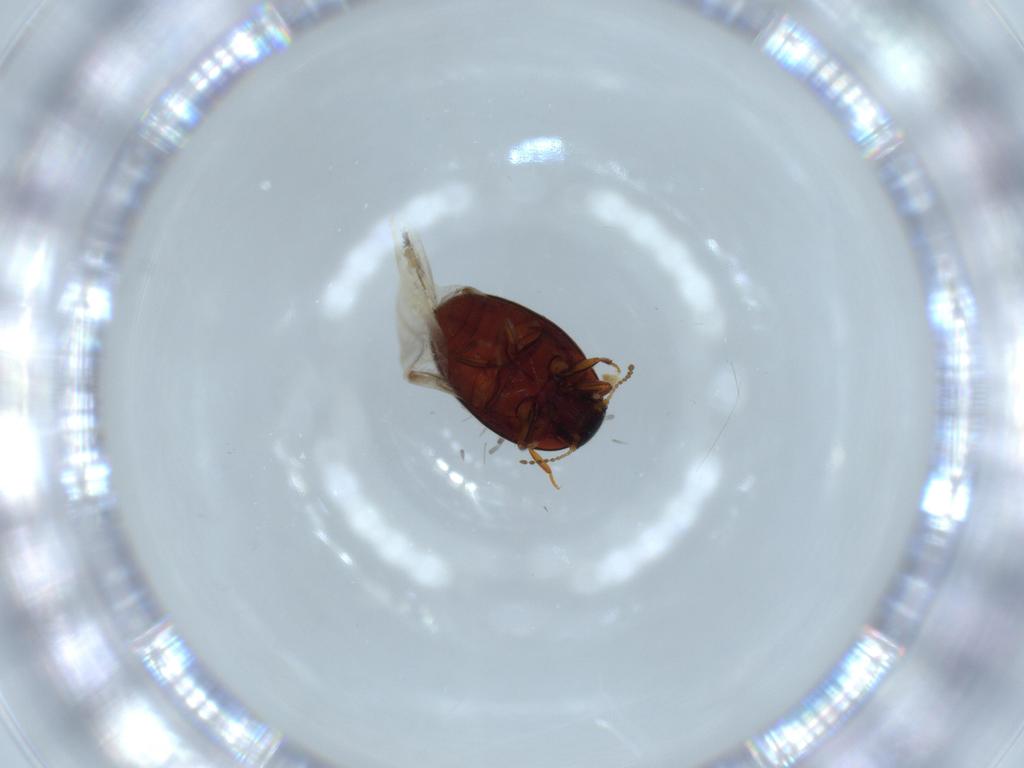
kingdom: Animalia
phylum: Arthropoda
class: Insecta
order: Coleoptera
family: Limnichidae
